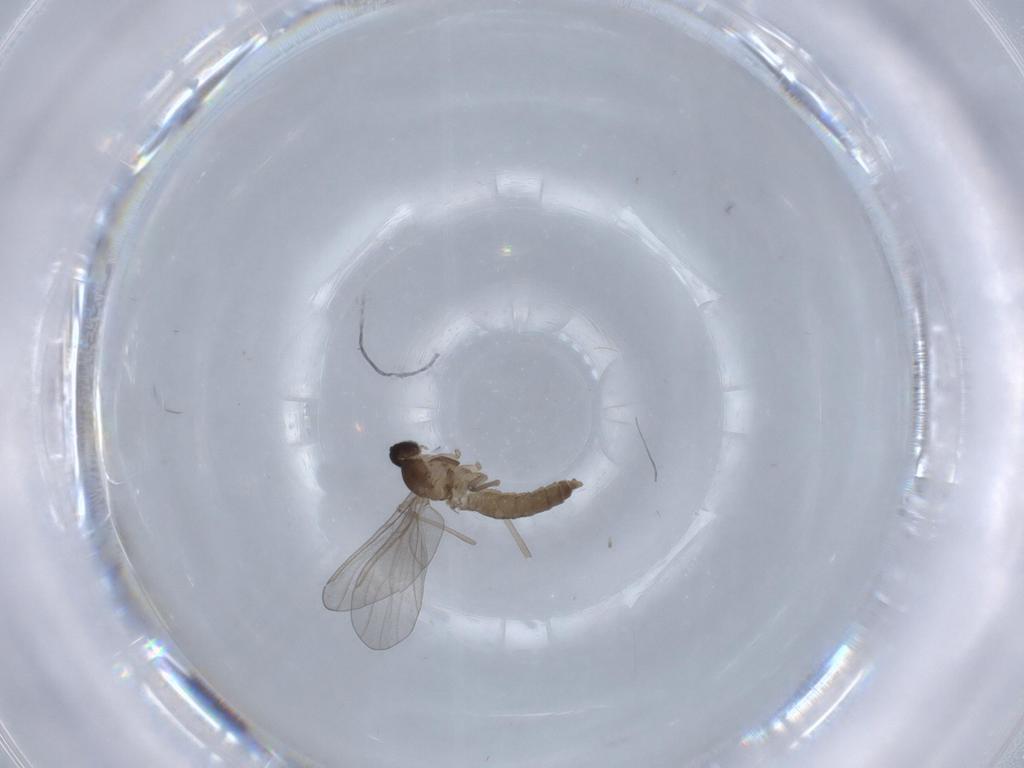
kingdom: Animalia
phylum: Arthropoda
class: Insecta
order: Diptera
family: Cecidomyiidae
